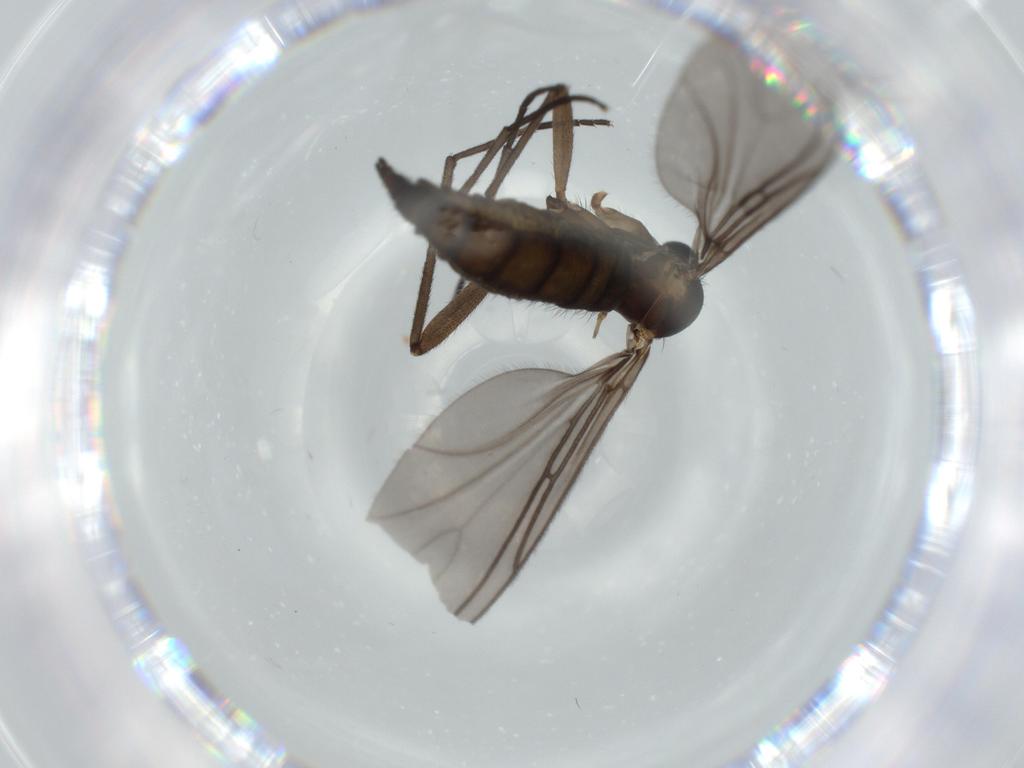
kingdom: Animalia
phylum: Arthropoda
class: Insecta
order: Diptera
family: Sciaridae
